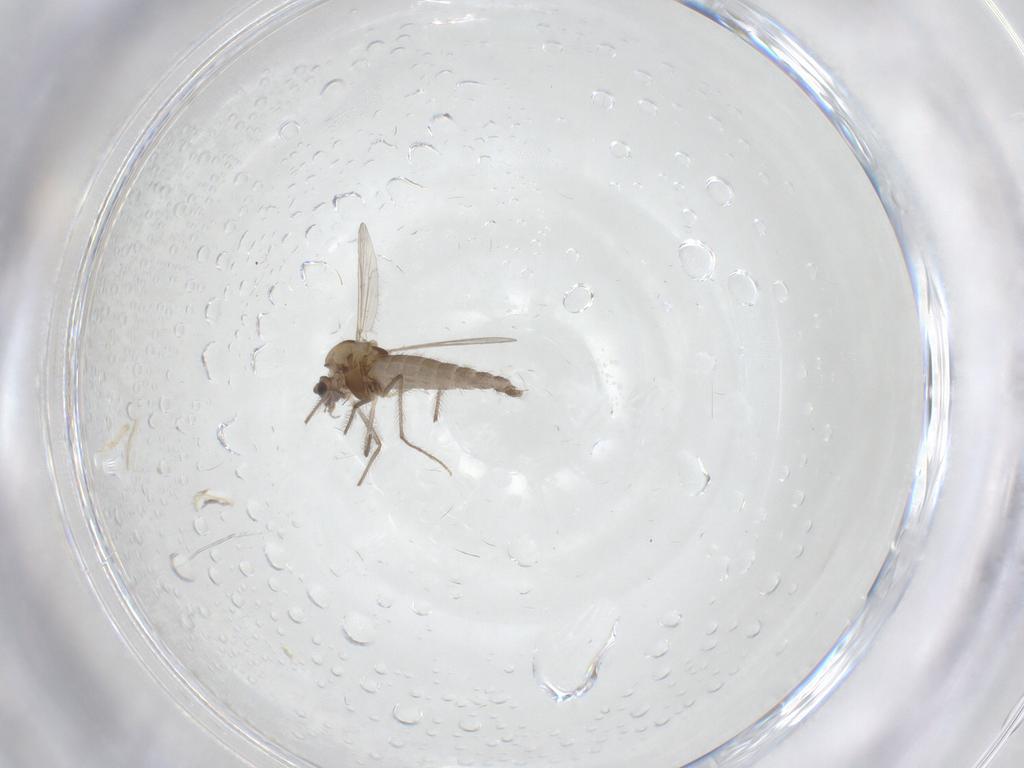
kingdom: Animalia
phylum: Arthropoda
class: Insecta
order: Diptera
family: Chironomidae
